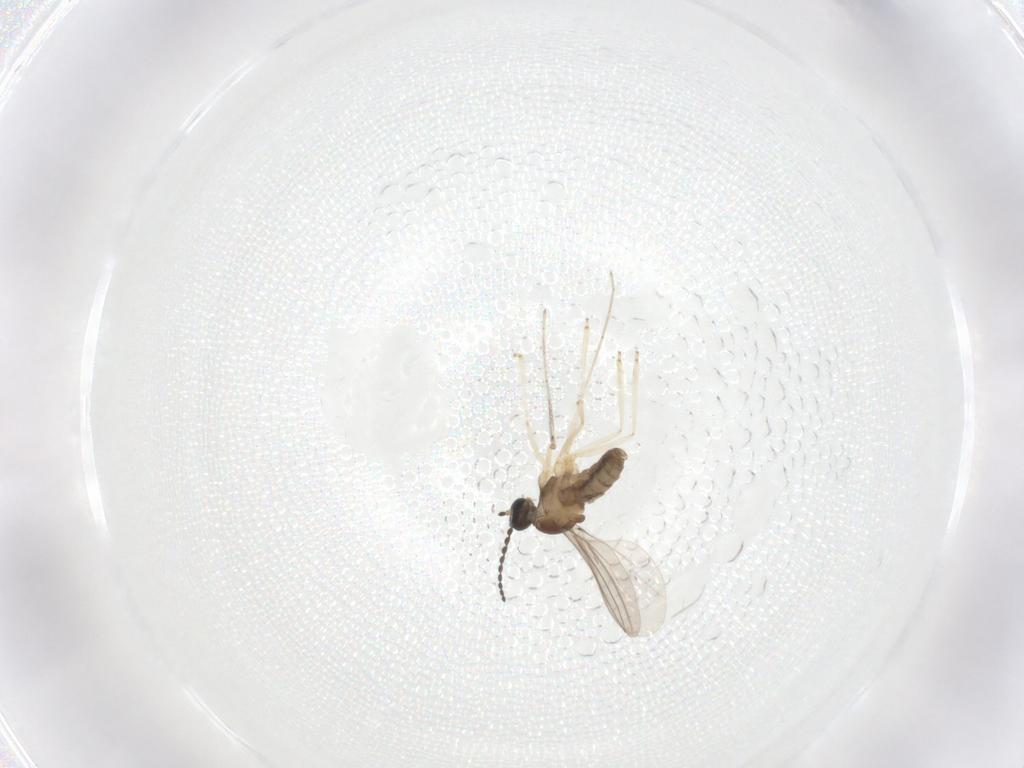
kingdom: Animalia
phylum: Arthropoda
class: Insecta
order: Diptera
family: Cecidomyiidae
